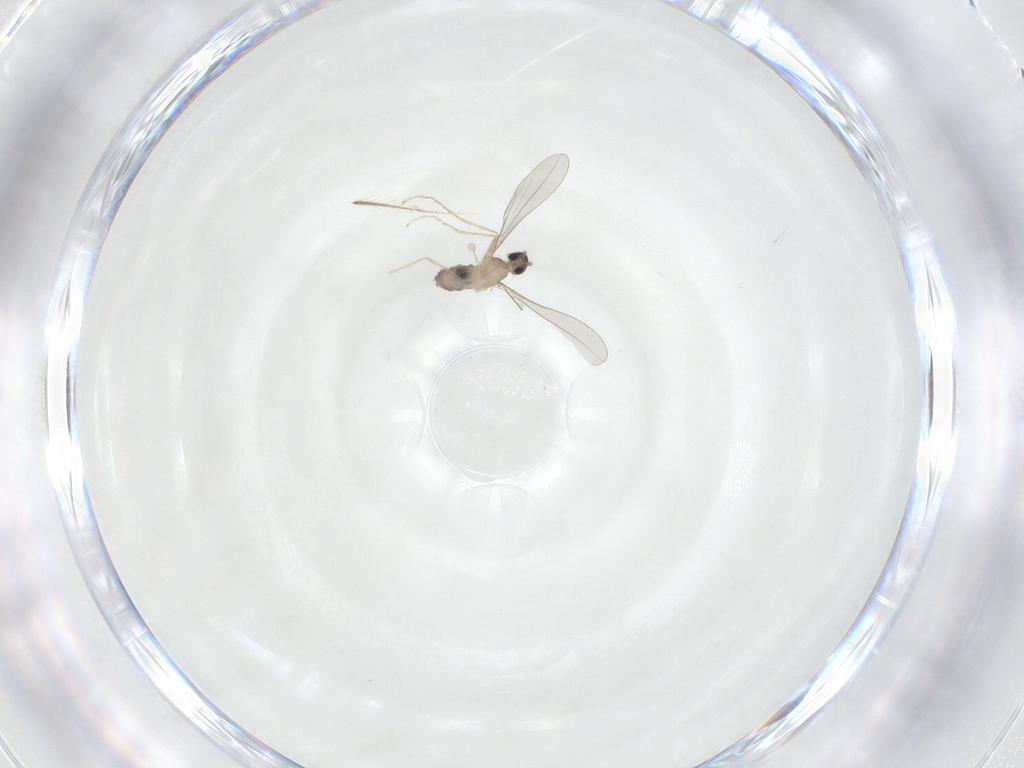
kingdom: Animalia
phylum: Arthropoda
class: Insecta
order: Diptera
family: Cecidomyiidae
